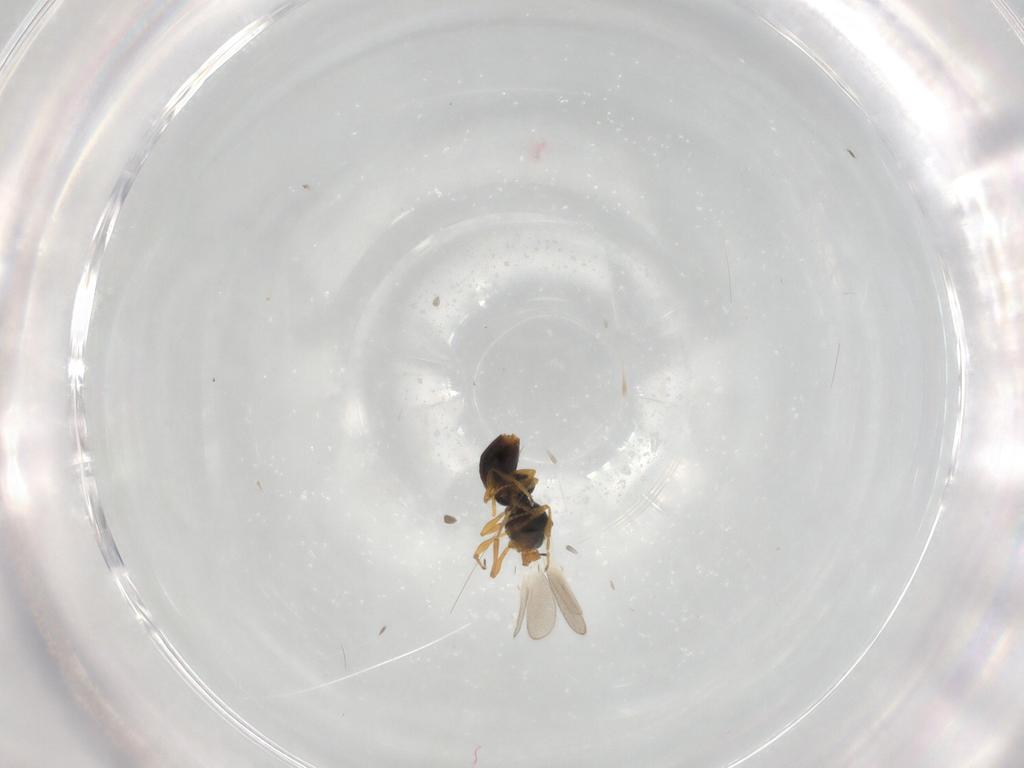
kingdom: Animalia
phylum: Arthropoda
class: Insecta
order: Hymenoptera
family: Platygastridae
